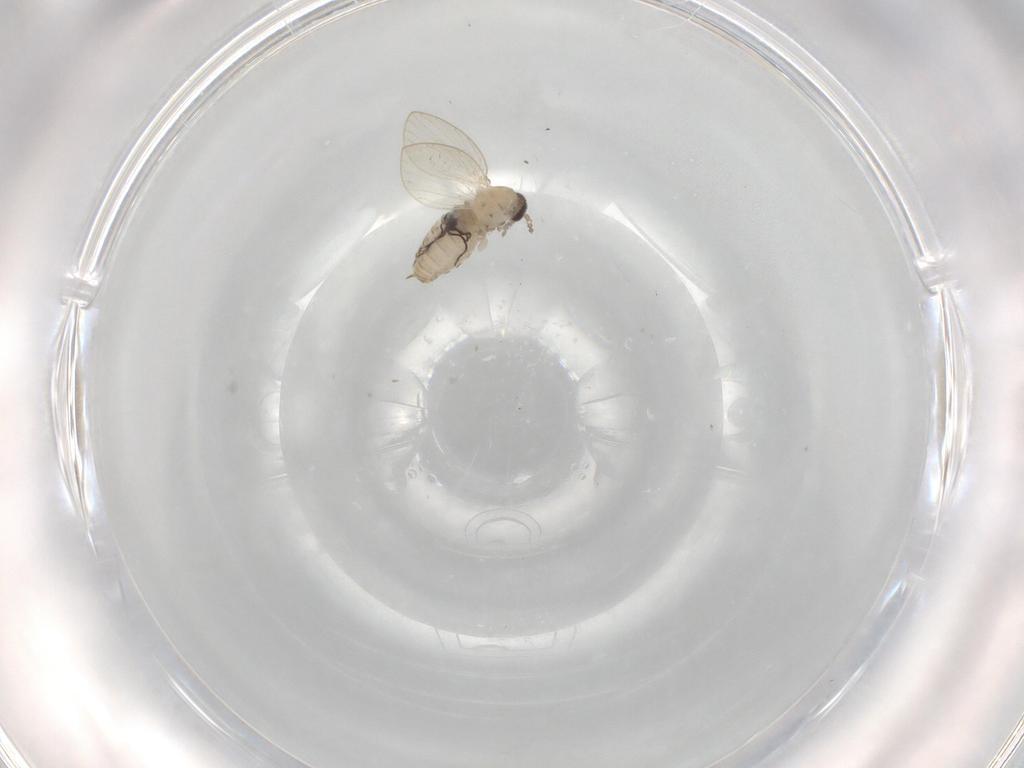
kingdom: Animalia
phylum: Arthropoda
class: Insecta
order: Diptera
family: Psychodidae
